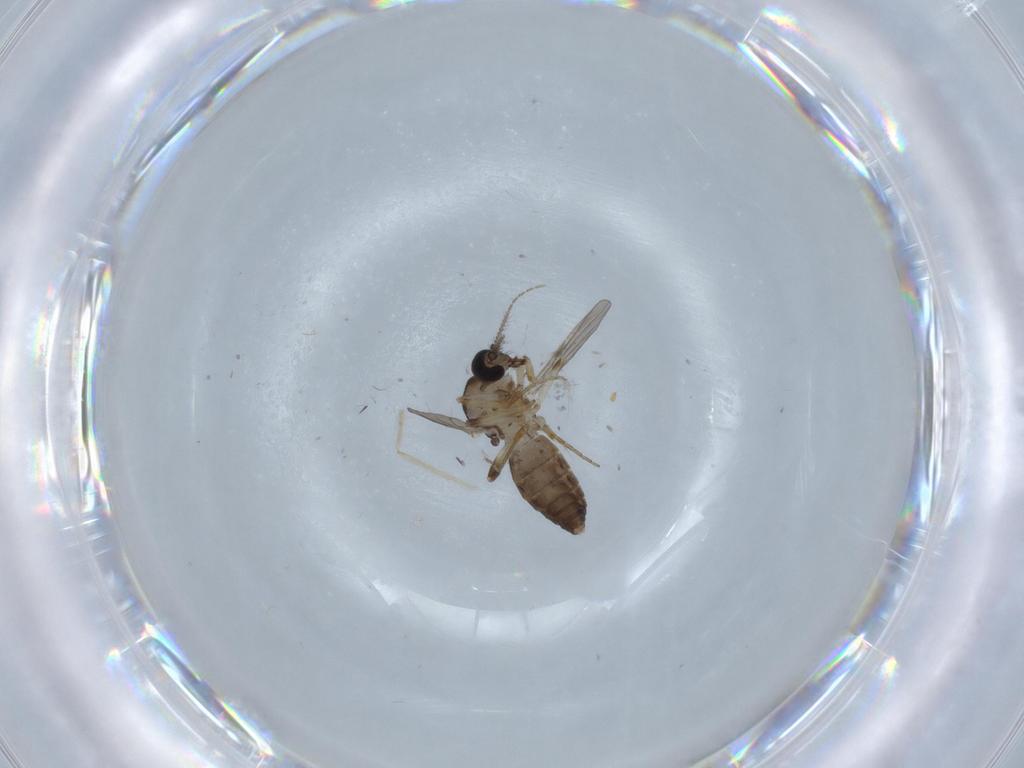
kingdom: Animalia
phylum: Arthropoda
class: Insecta
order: Diptera
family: Ceratopogonidae
